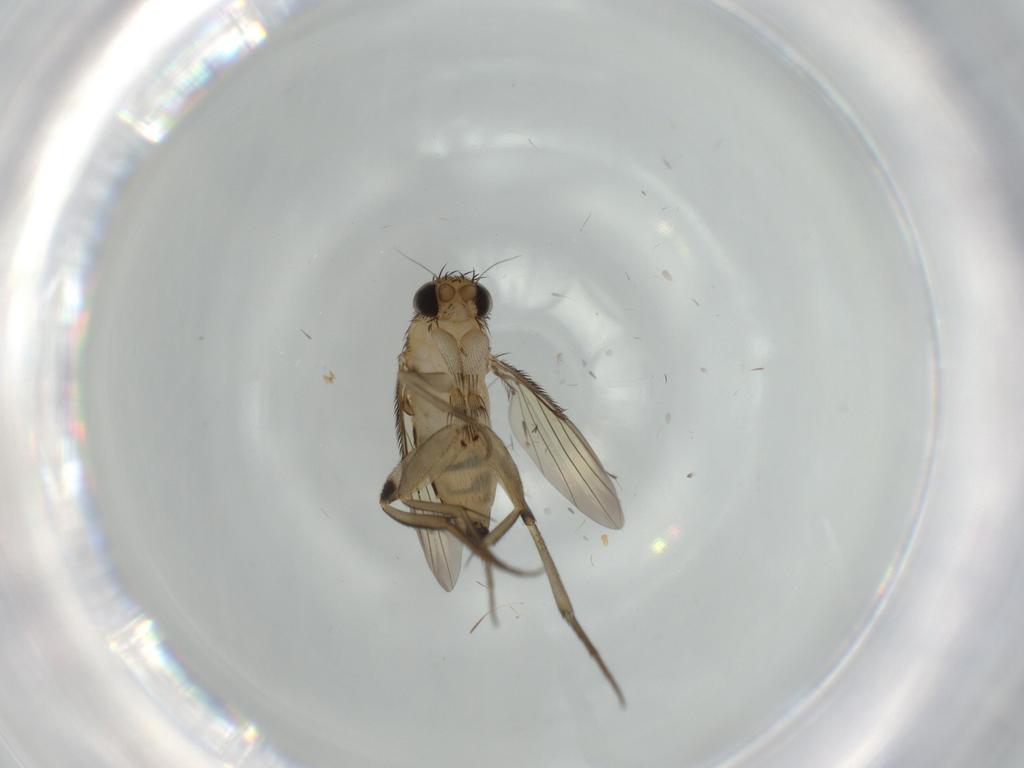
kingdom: Animalia
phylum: Arthropoda
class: Insecta
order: Diptera
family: Phoridae
